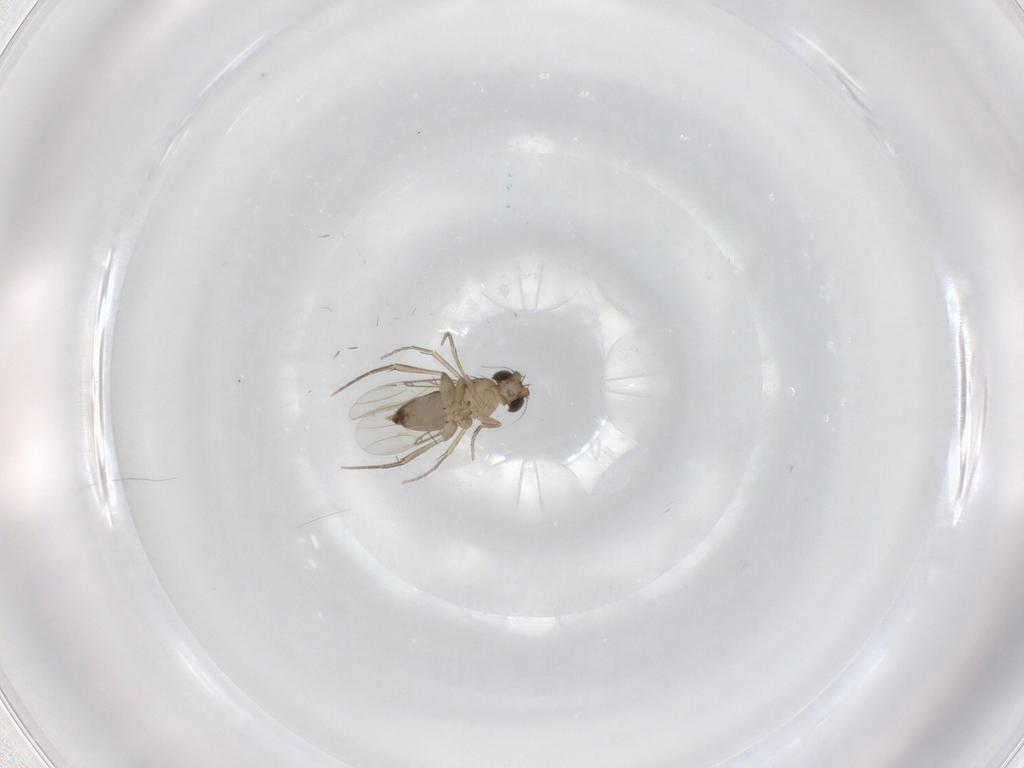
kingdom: Animalia
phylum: Arthropoda
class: Insecta
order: Diptera
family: Phoridae
